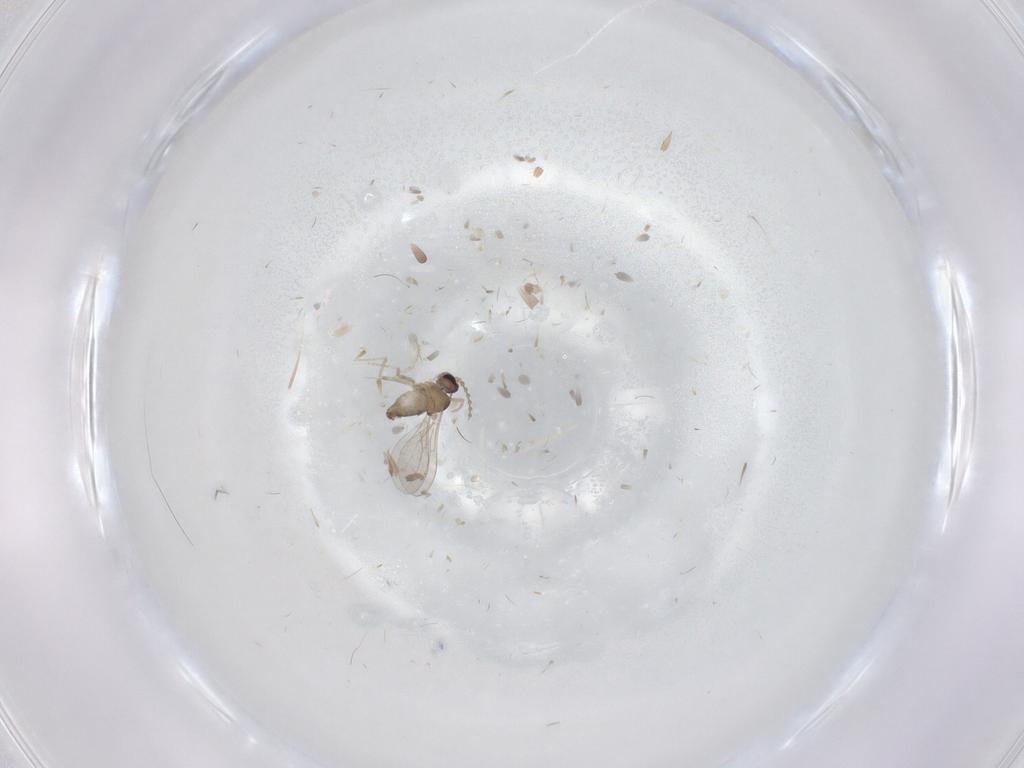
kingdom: Animalia
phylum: Arthropoda
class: Insecta
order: Diptera
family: Cecidomyiidae
